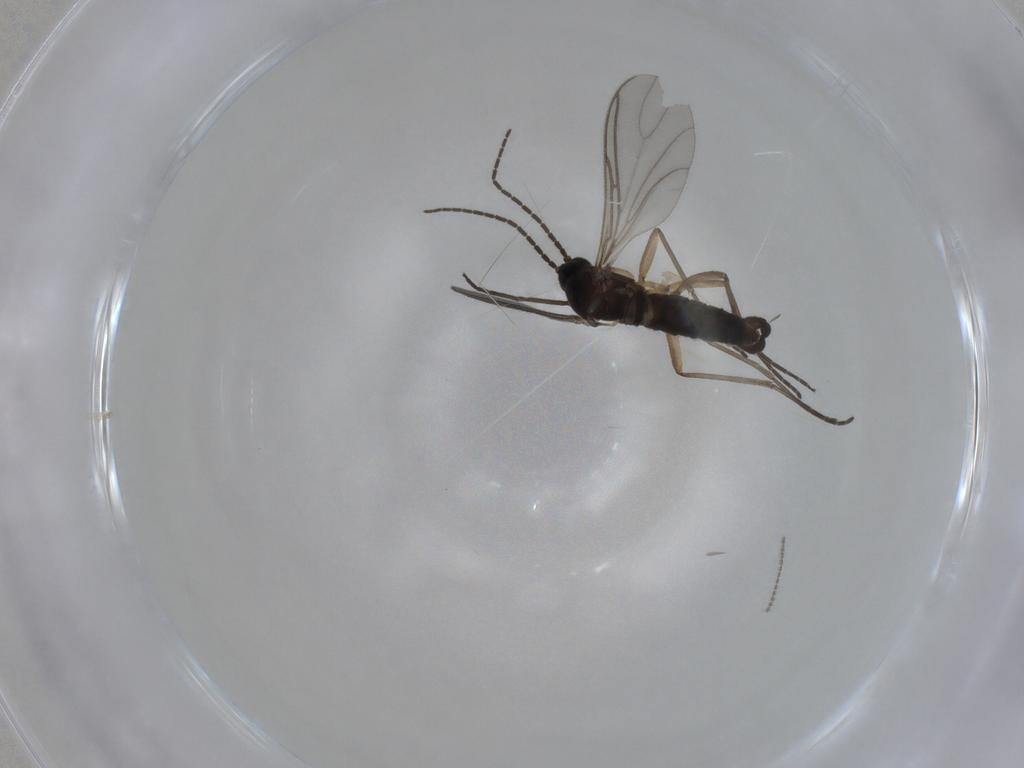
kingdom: Animalia
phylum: Arthropoda
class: Insecta
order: Diptera
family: Sciaridae
